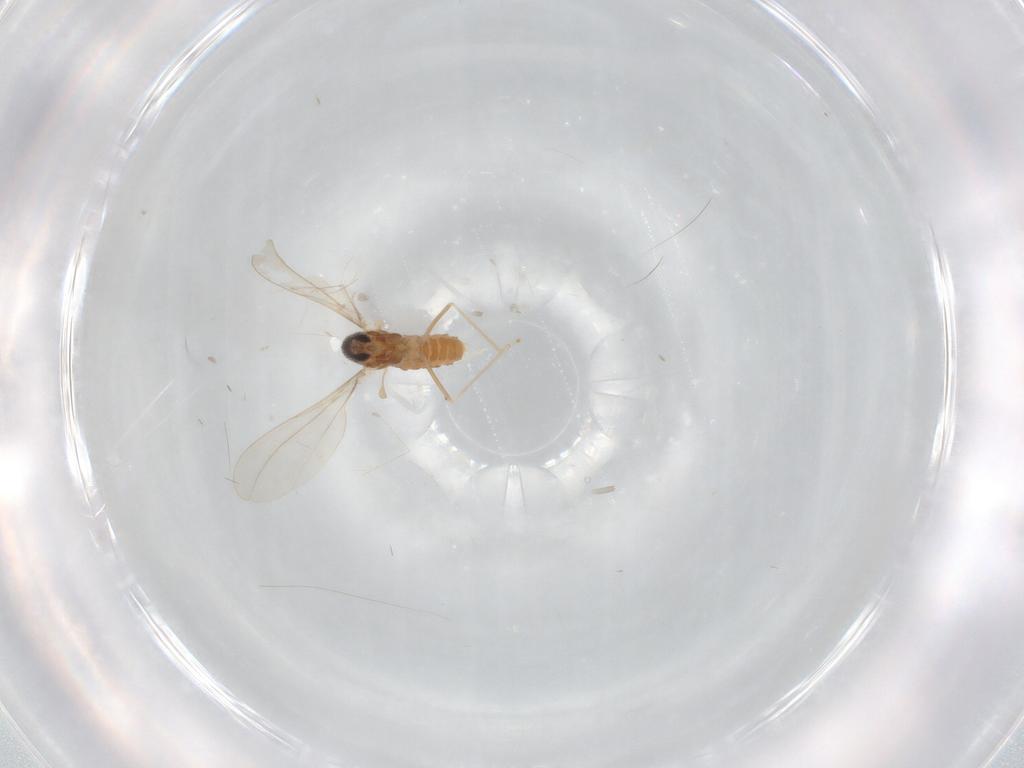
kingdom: Animalia
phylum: Arthropoda
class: Insecta
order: Diptera
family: Cecidomyiidae
